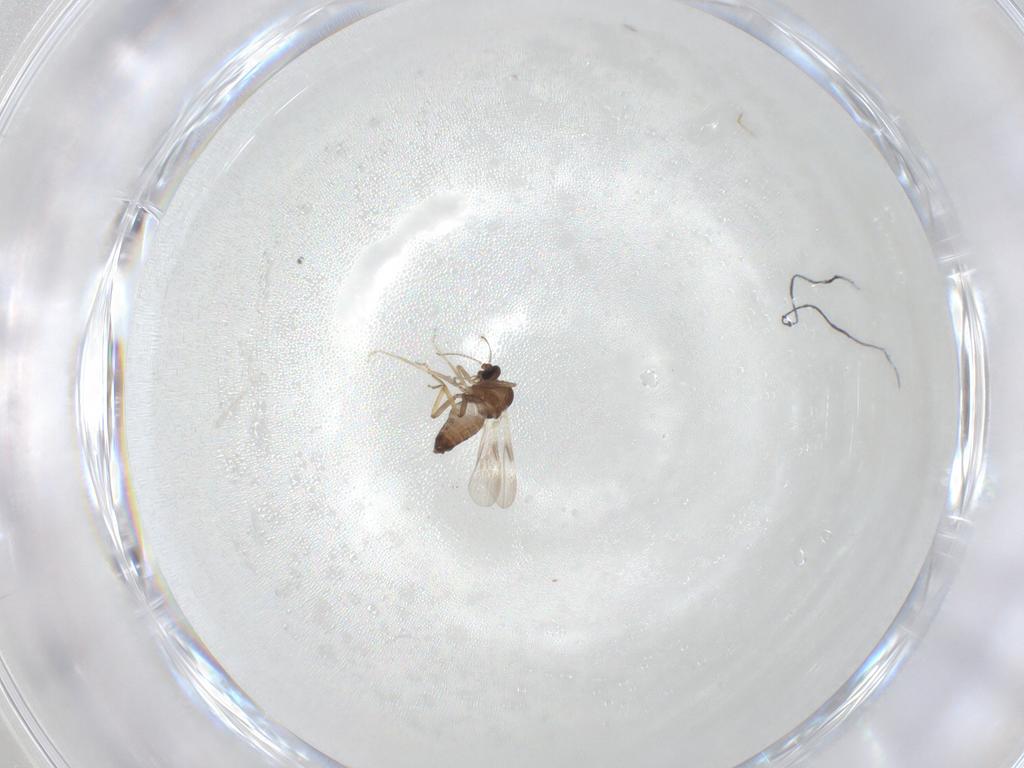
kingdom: Animalia
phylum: Arthropoda
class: Insecta
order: Diptera
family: Ceratopogonidae
